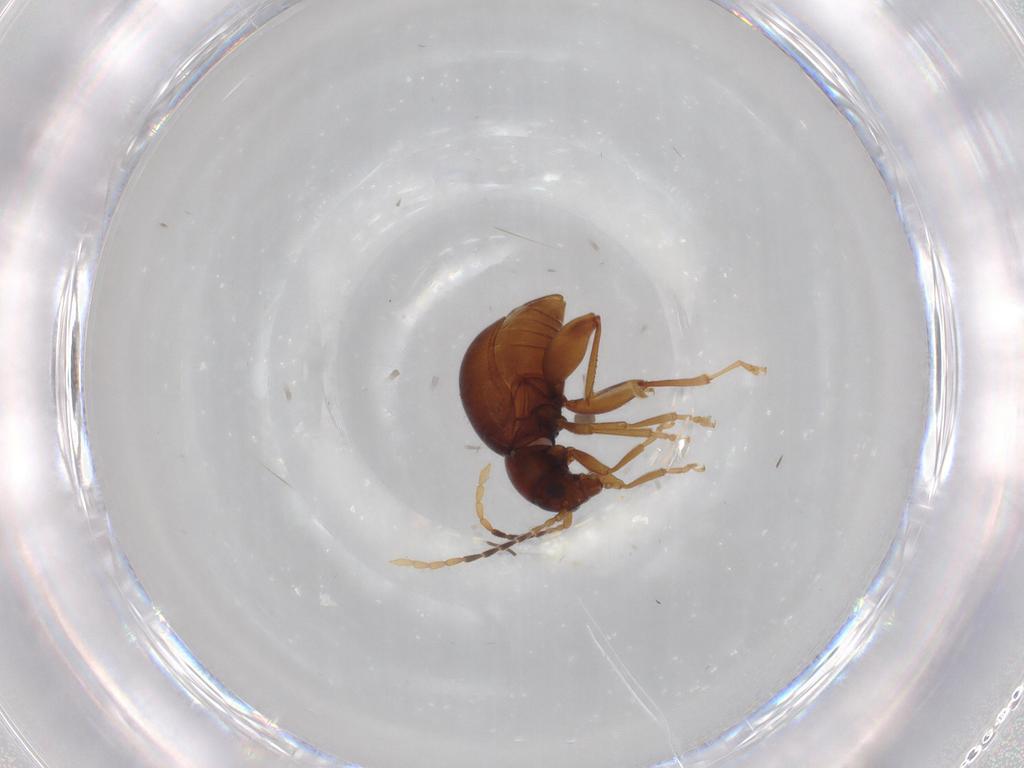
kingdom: Animalia
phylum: Arthropoda
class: Insecta
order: Coleoptera
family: Chrysomelidae
